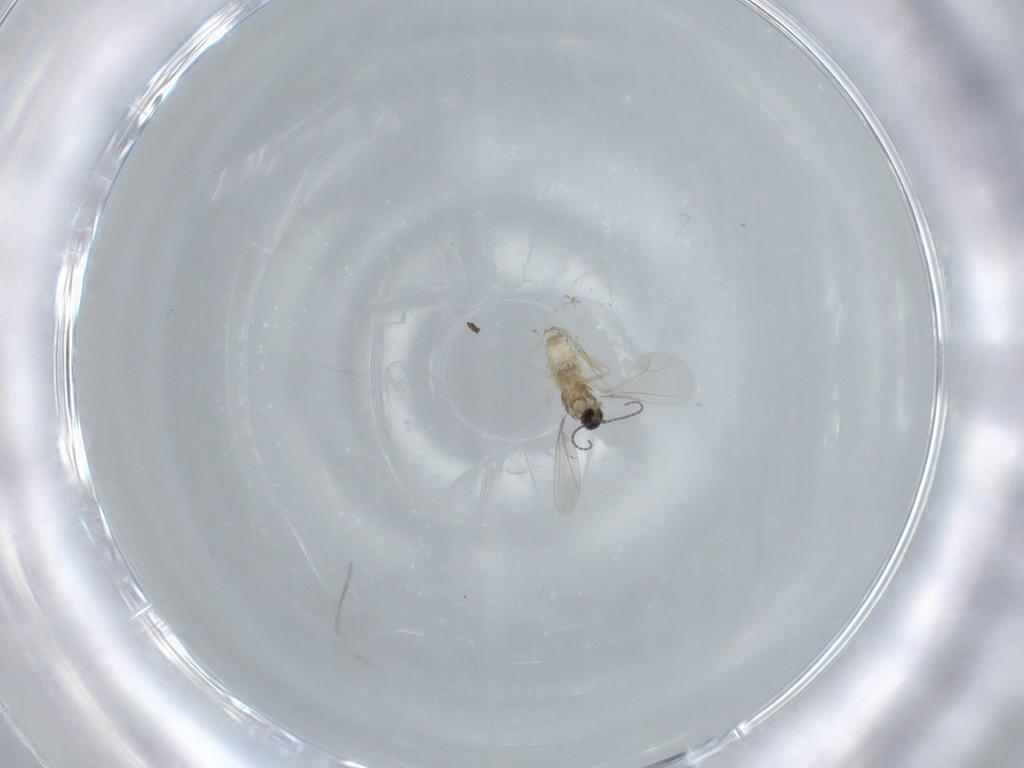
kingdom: Animalia
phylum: Arthropoda
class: Insecta
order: Diptera
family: Cecidomyiidae
